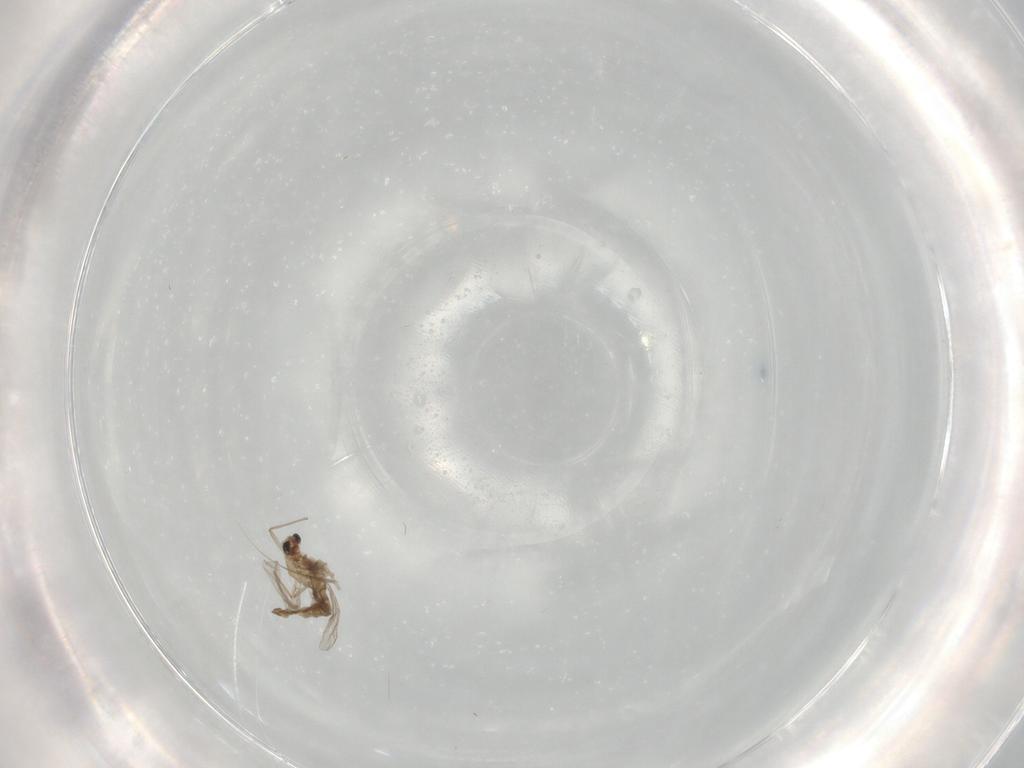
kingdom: Animalia
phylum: Arthropoda
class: Insecta
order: Diptera
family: Chironomidae
